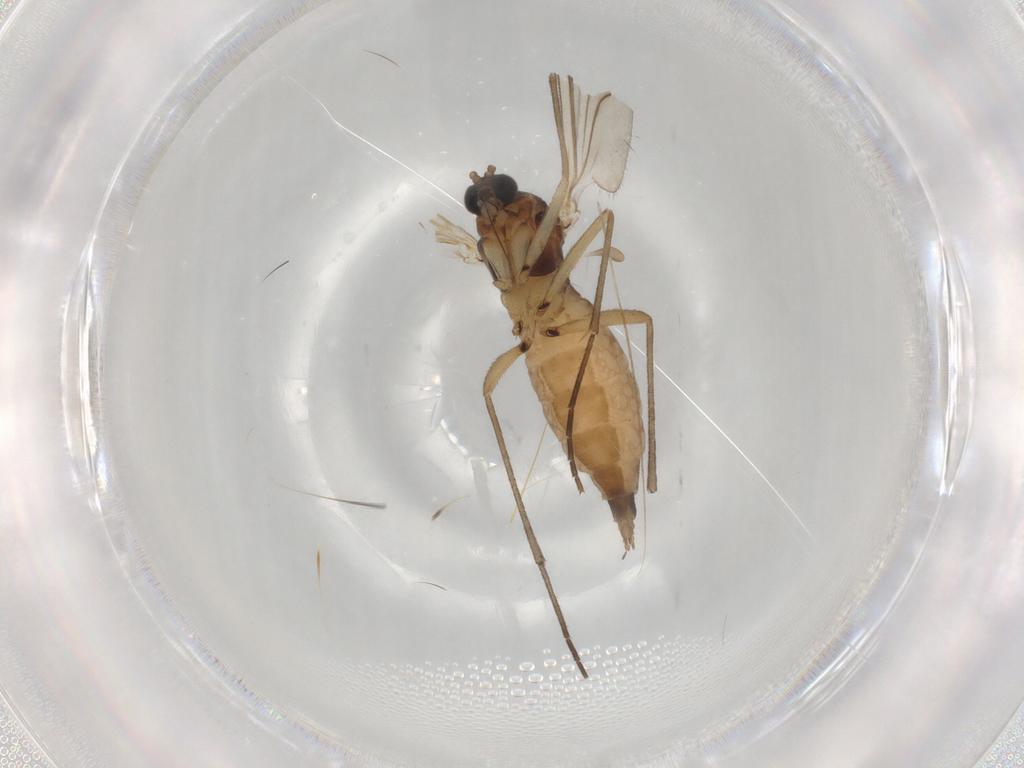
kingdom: Animalia
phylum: Arthropoda
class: Insecta
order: Diptera
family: Sciaridae
